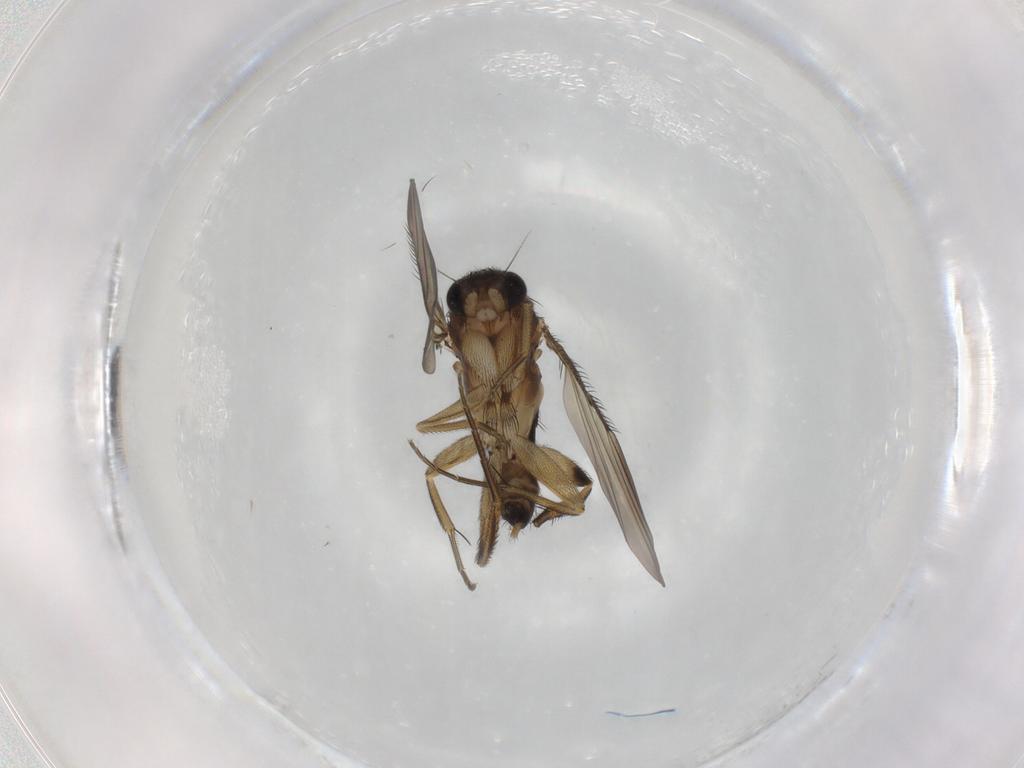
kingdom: Animalia
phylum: Arthropoda
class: Insecta
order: Diptera
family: Phoridae
